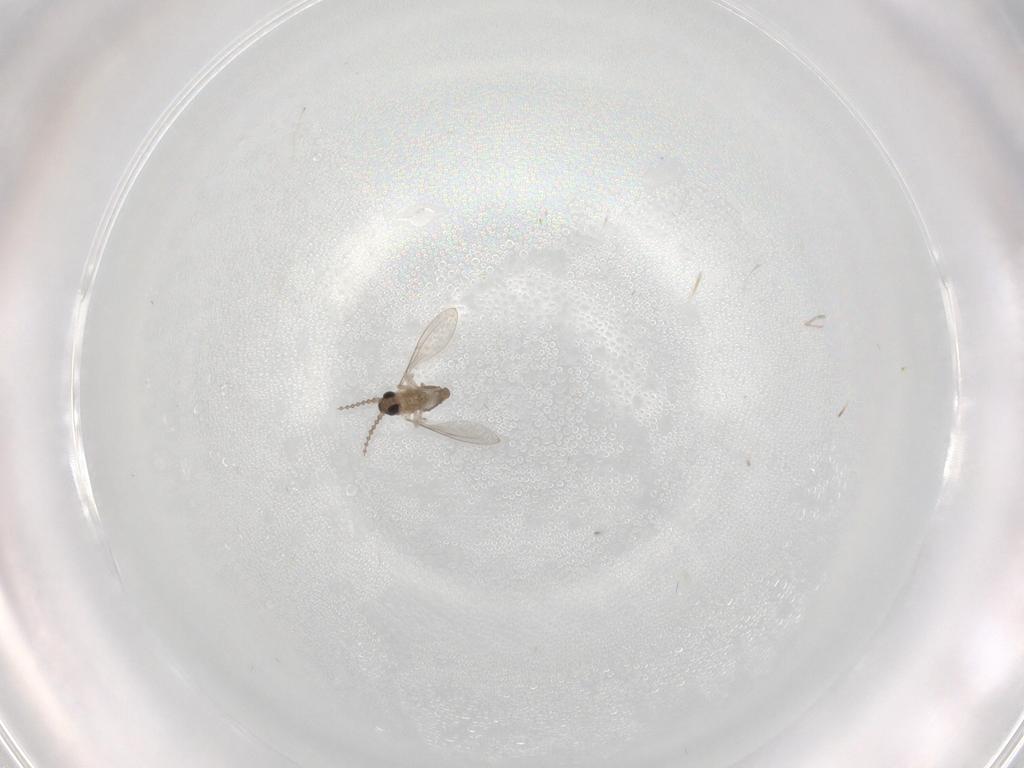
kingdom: Animalia
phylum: Arthropoda
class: Insecta
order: Diptera
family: Cecidomyiidae
